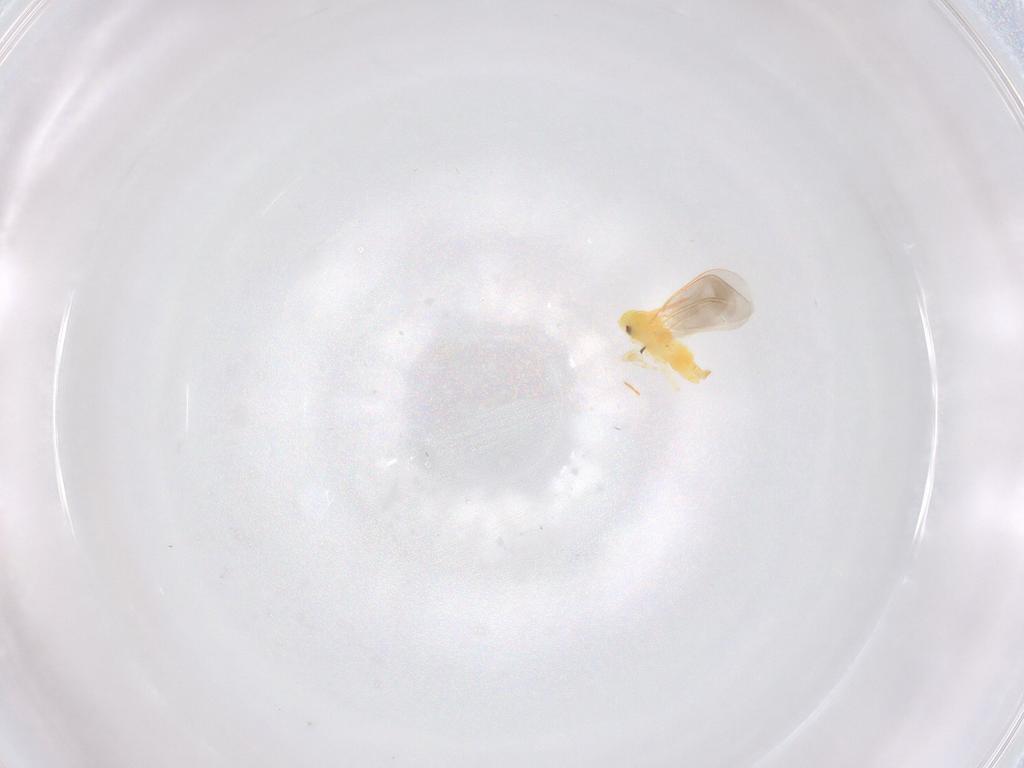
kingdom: Animalia
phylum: Arthropoda
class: Insecta
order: Hemiptera
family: Aleyrodidae
